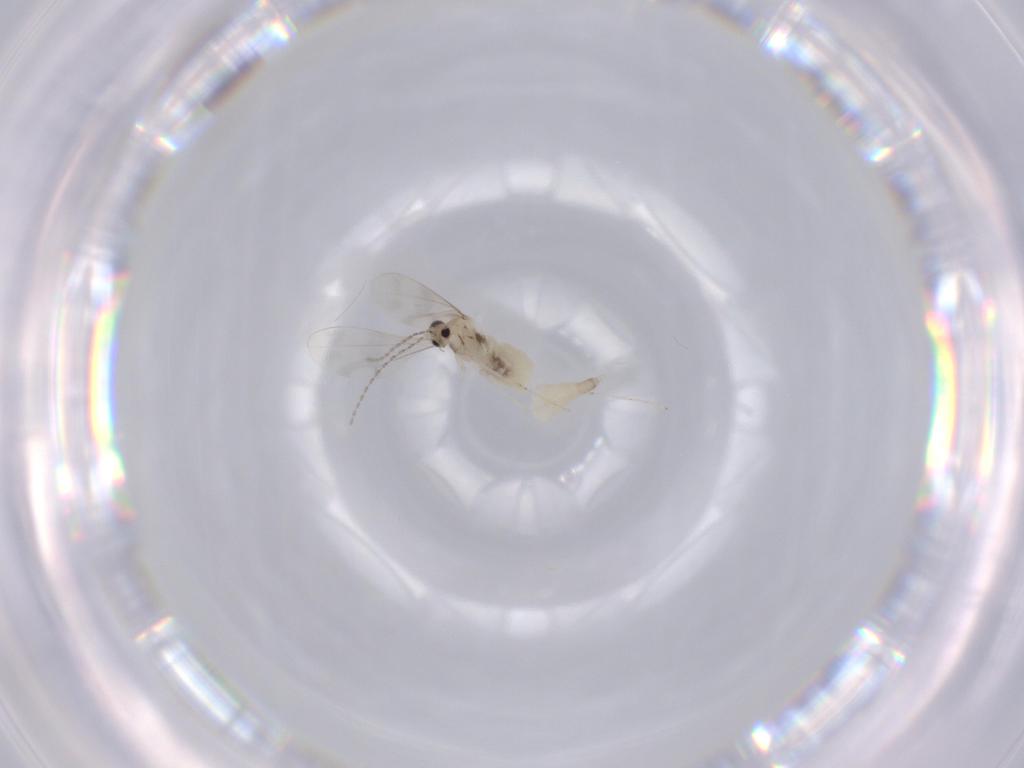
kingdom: Animalia
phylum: Arthropoda
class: Insecta
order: Diptera
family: Cecidomyiidae
